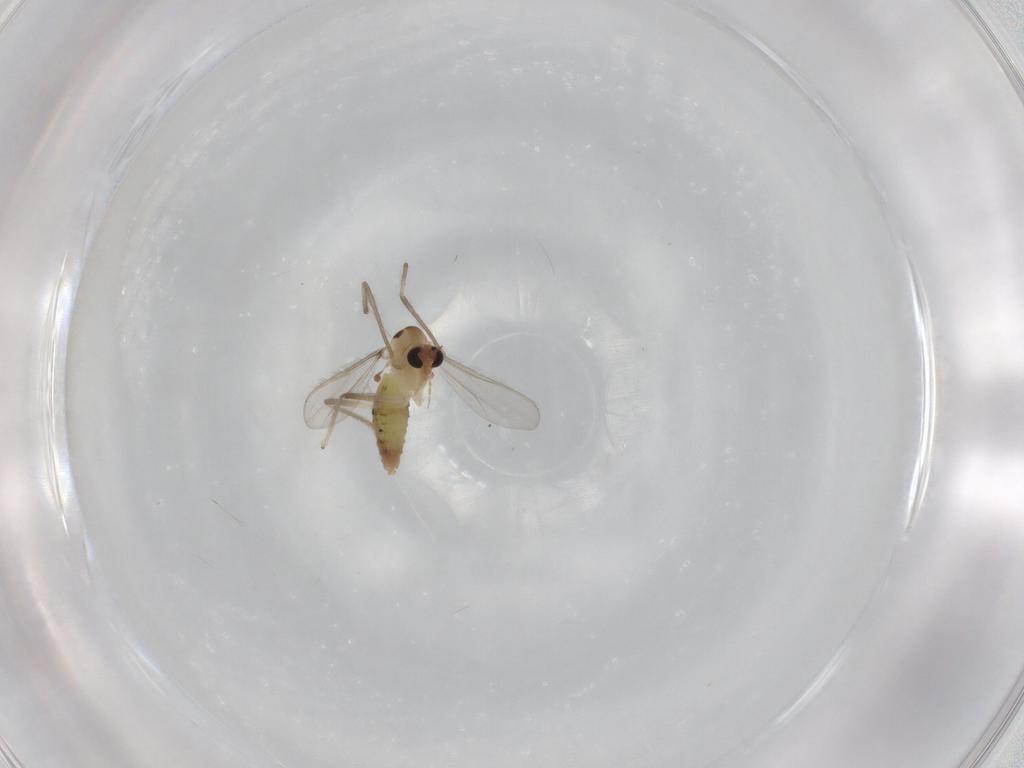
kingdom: Animalia
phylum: Arthropoda
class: Insecta
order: Diptera
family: Chironomidae
